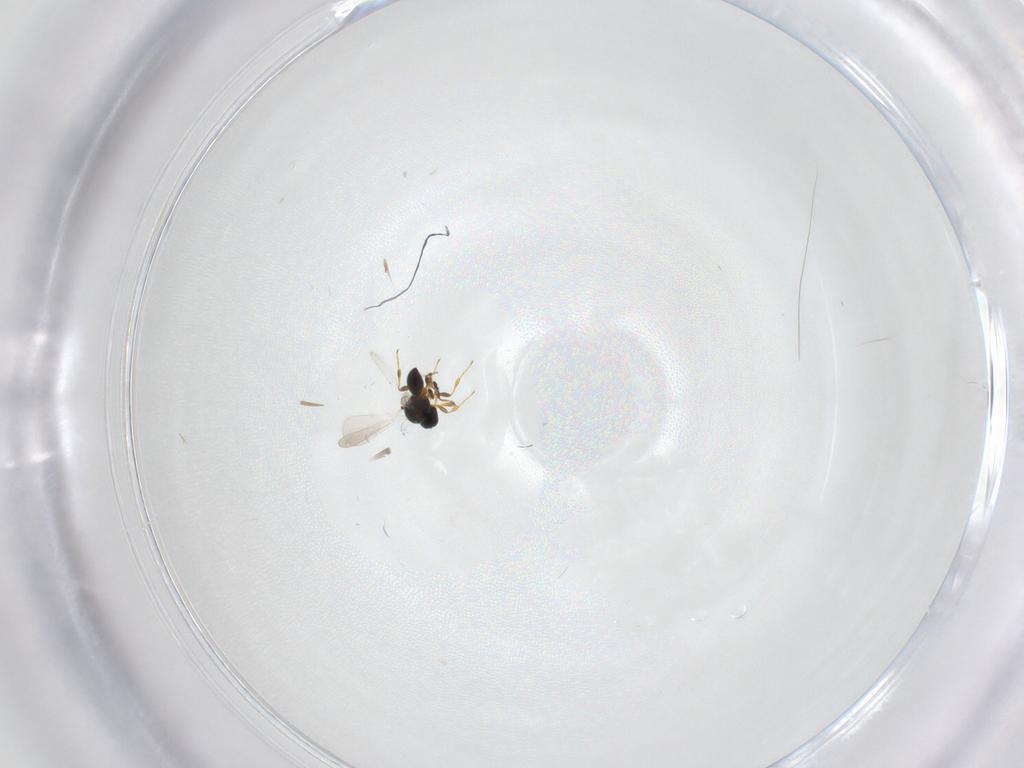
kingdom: Animalia
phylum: Arthropoda
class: Insecta
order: Hymenoptera
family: Platygastridae
